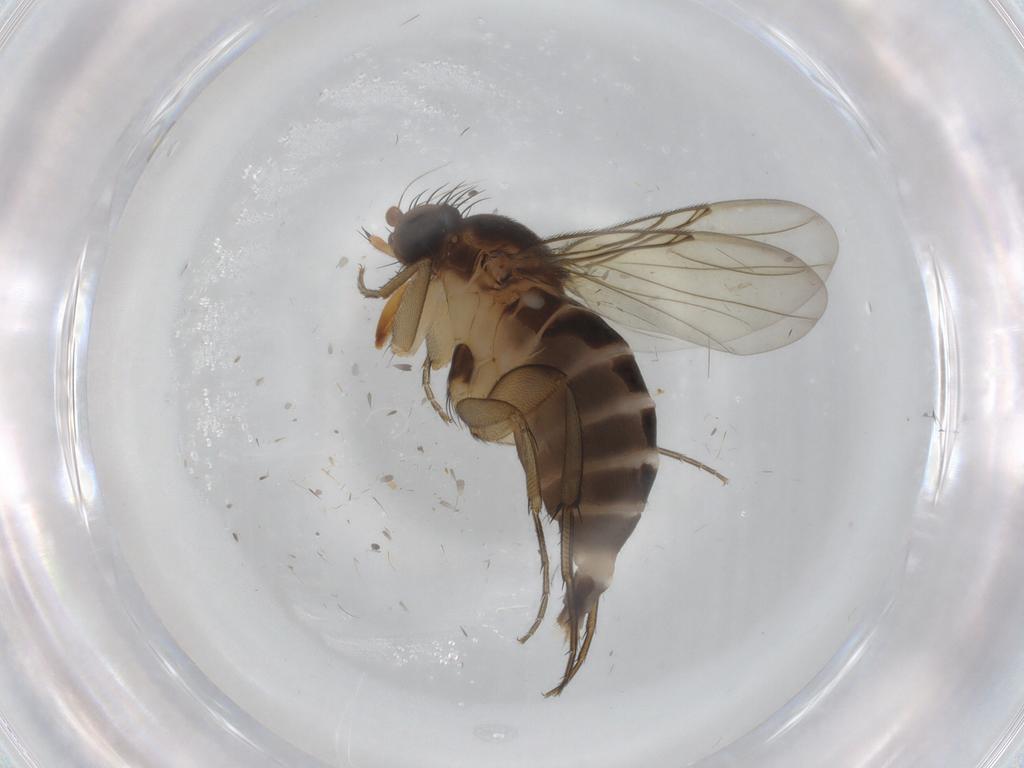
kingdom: Animalia
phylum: Arthropoda
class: Insecta
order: Diptera
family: Phoridae
